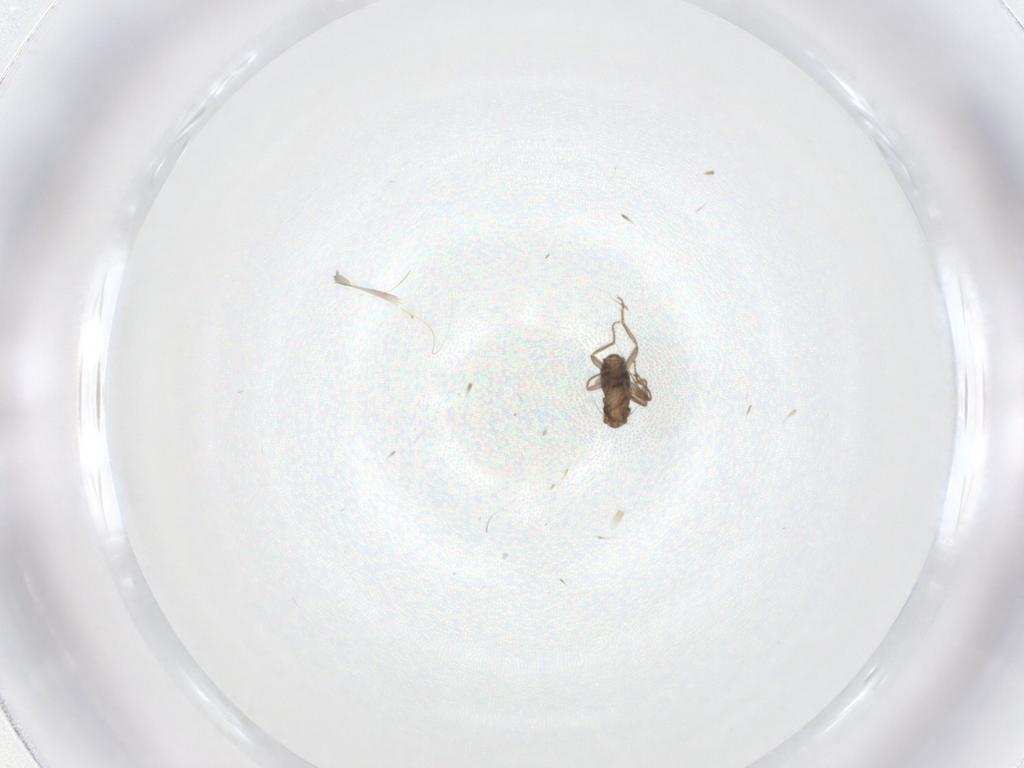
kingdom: Animalia
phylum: Arthropoda
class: Insecta
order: Diptera
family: Phoridae
